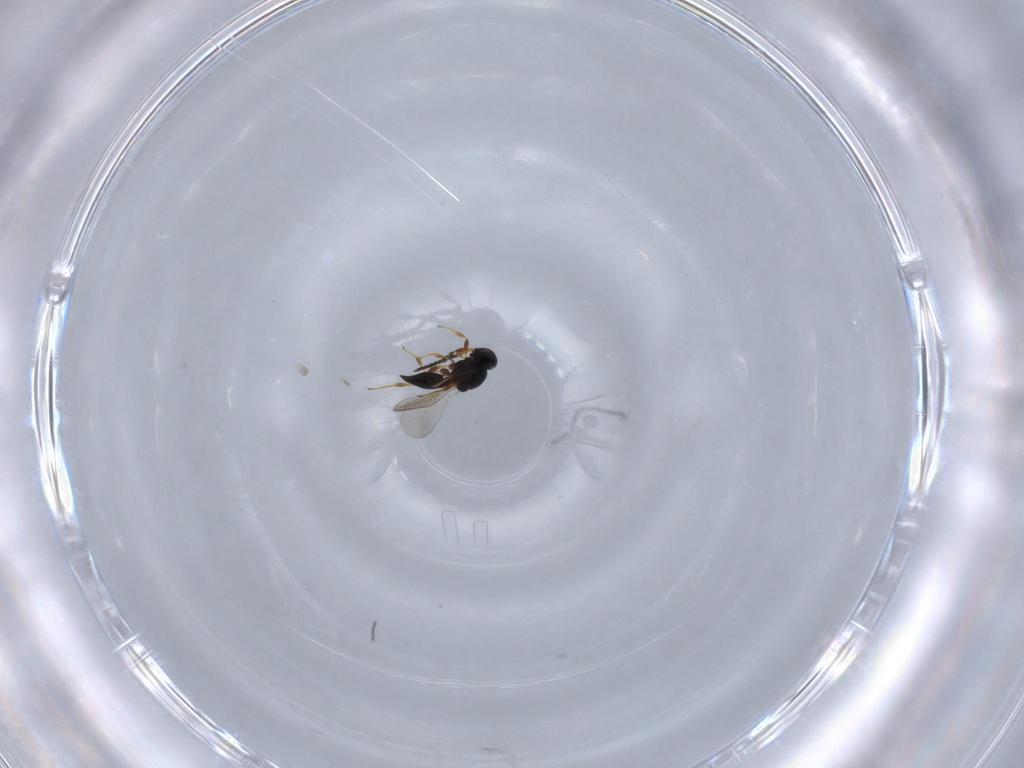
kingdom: Animalia
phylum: Arthropoda
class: Insecta
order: Hymenoptera
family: Platygastridae
